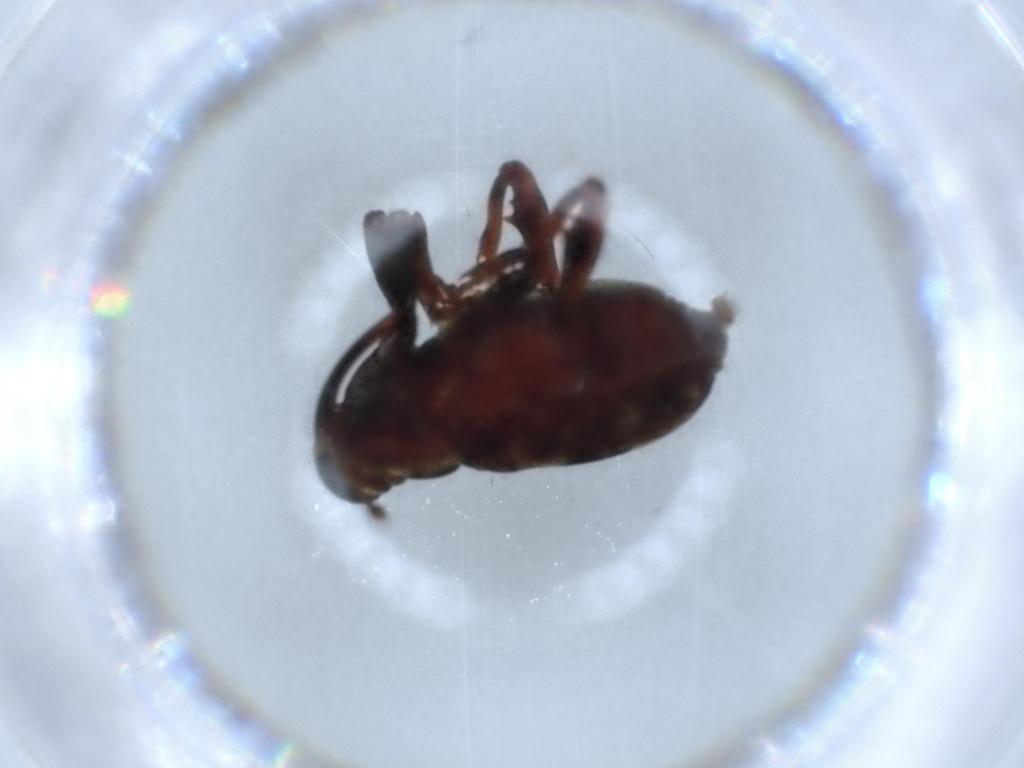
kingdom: Animalia
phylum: Arthropoda
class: Insecta
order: Coleoptera
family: Curculionidae
